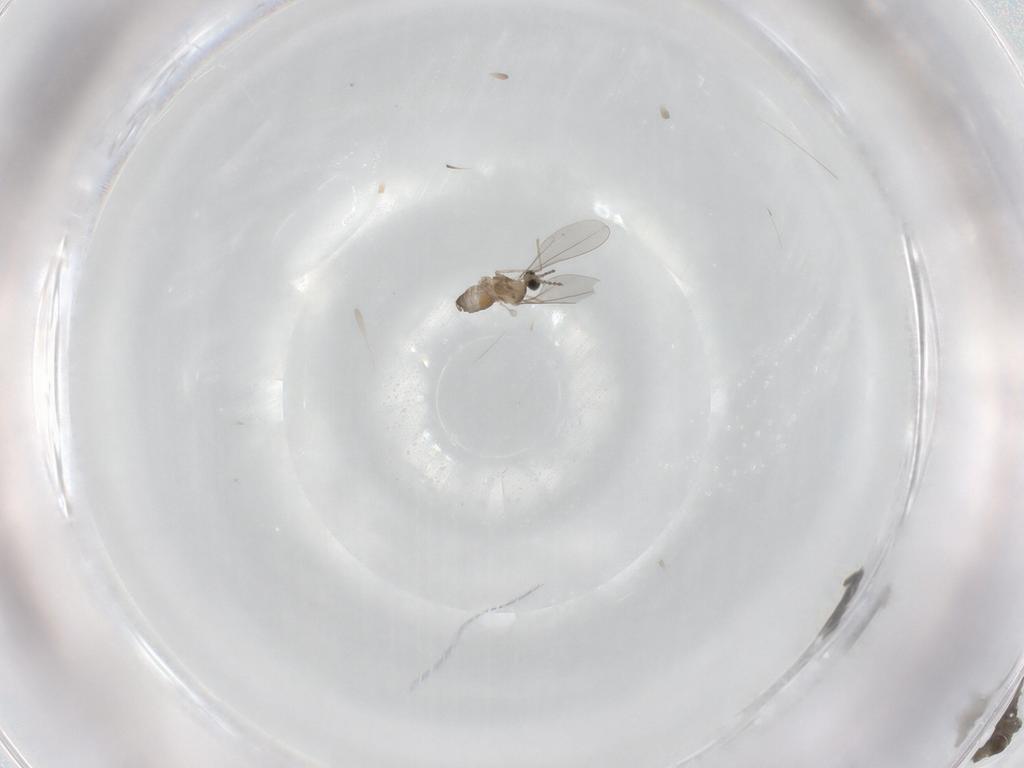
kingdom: Animalia
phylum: Arthropoda
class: Insecta
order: Diptera
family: Cecidomyiidae
